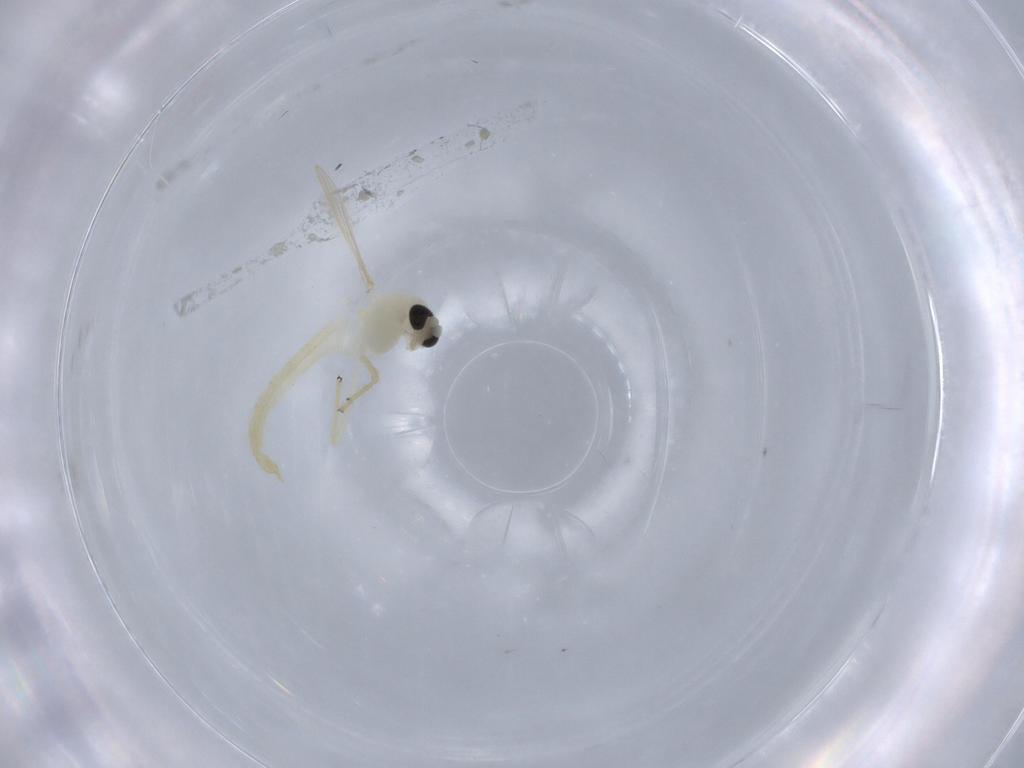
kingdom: Animalia
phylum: Arthropoda
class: Insecta
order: Diptera
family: Chironomidae
